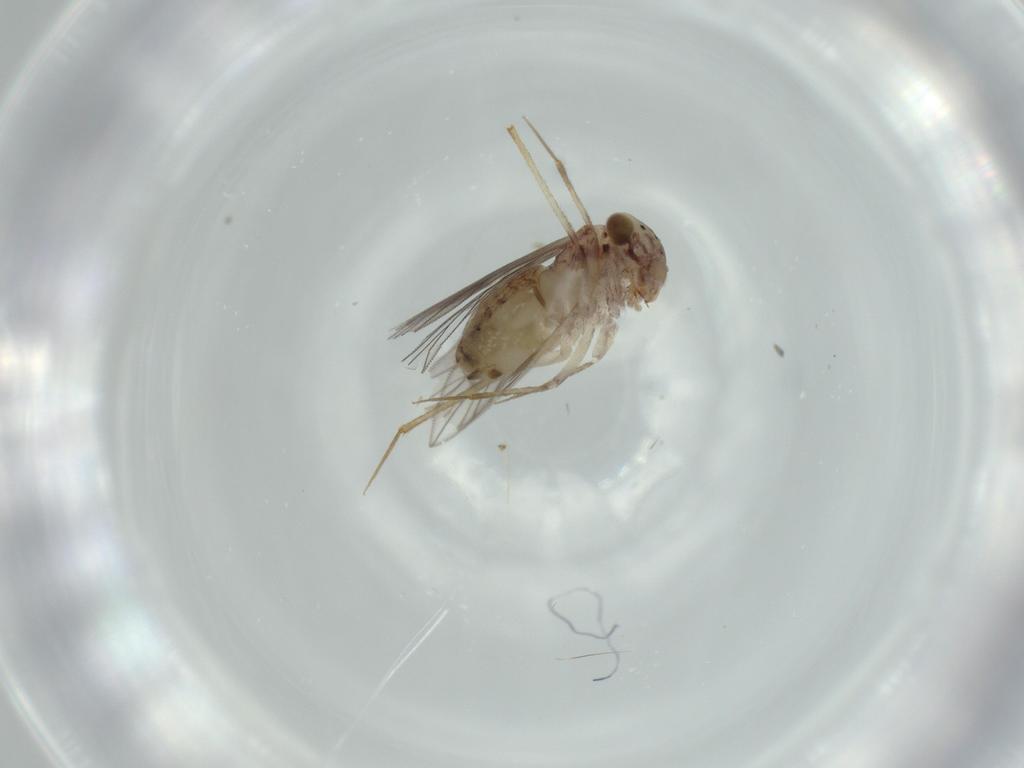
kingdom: Animalia
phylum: Arthropoda
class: Insecta
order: Psocodea
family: Lepidopsocidae
